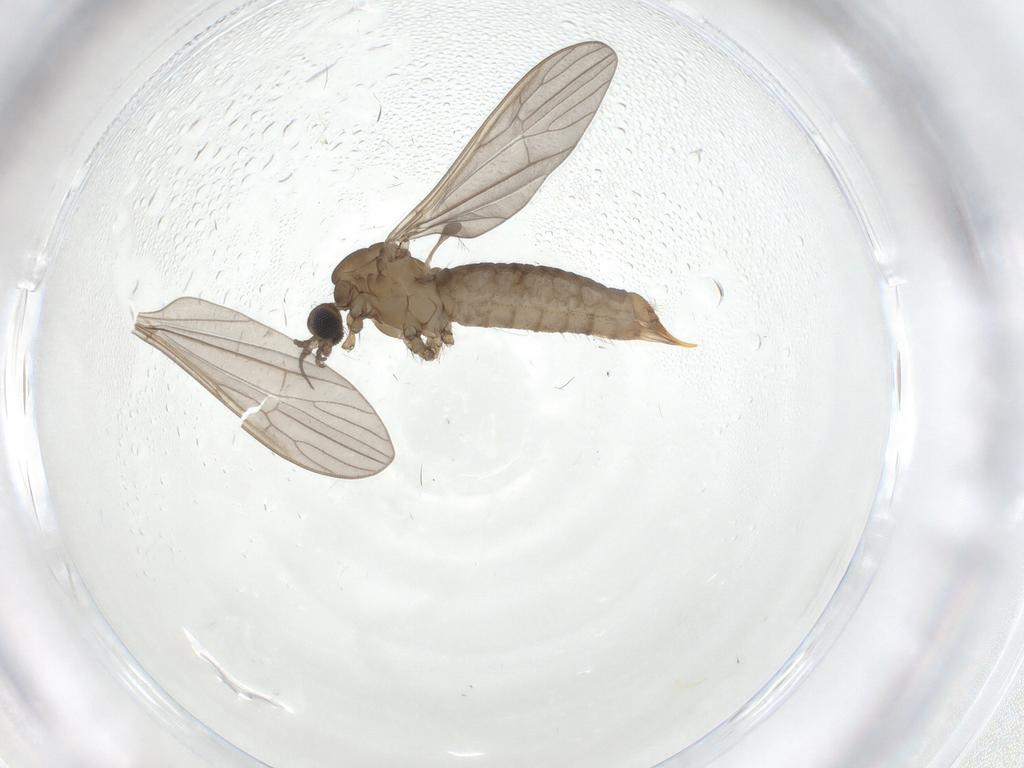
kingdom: Animalia
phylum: Arthropoda
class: Insecta
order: Diptera
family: Limoniidae
